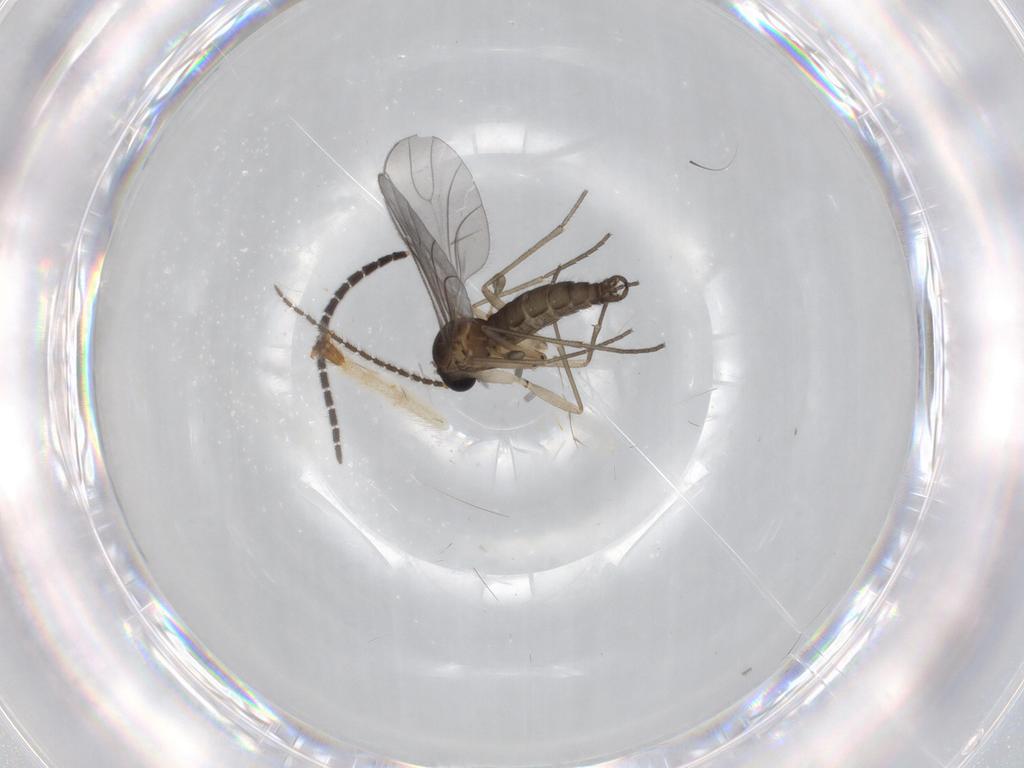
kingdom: Animalia
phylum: Arthropoda
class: Insecta
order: Diptera
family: Sciaridae
